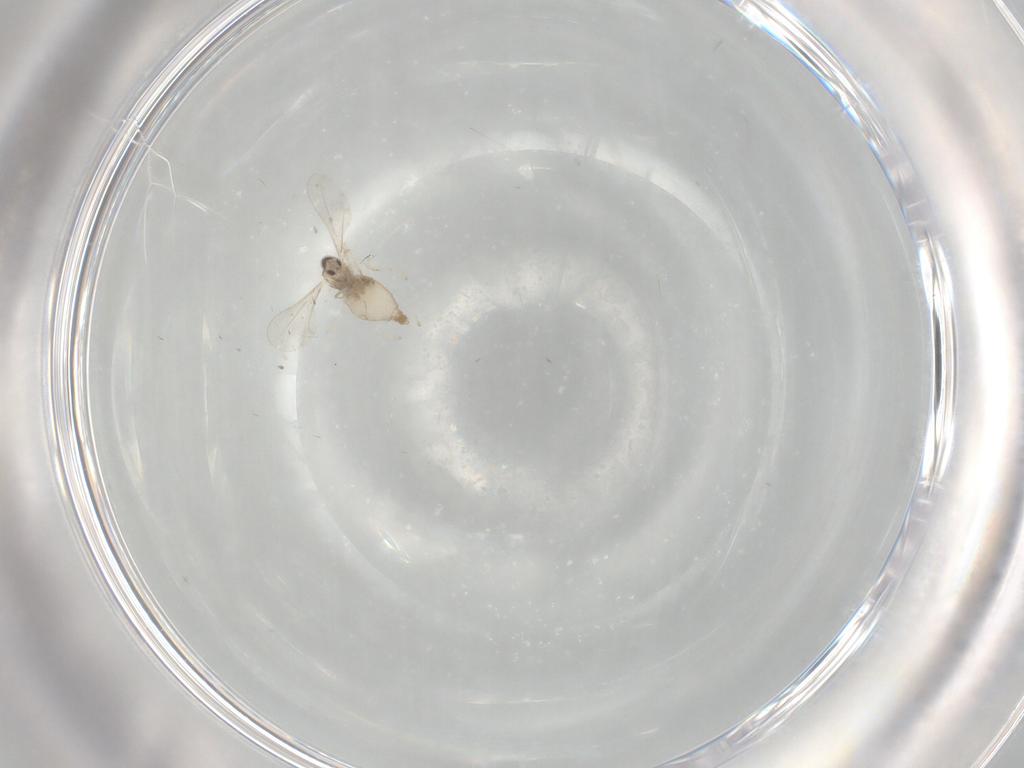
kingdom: Animalia
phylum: Arthropoda
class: Insecta
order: Diptera
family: Cecidomyiidae
